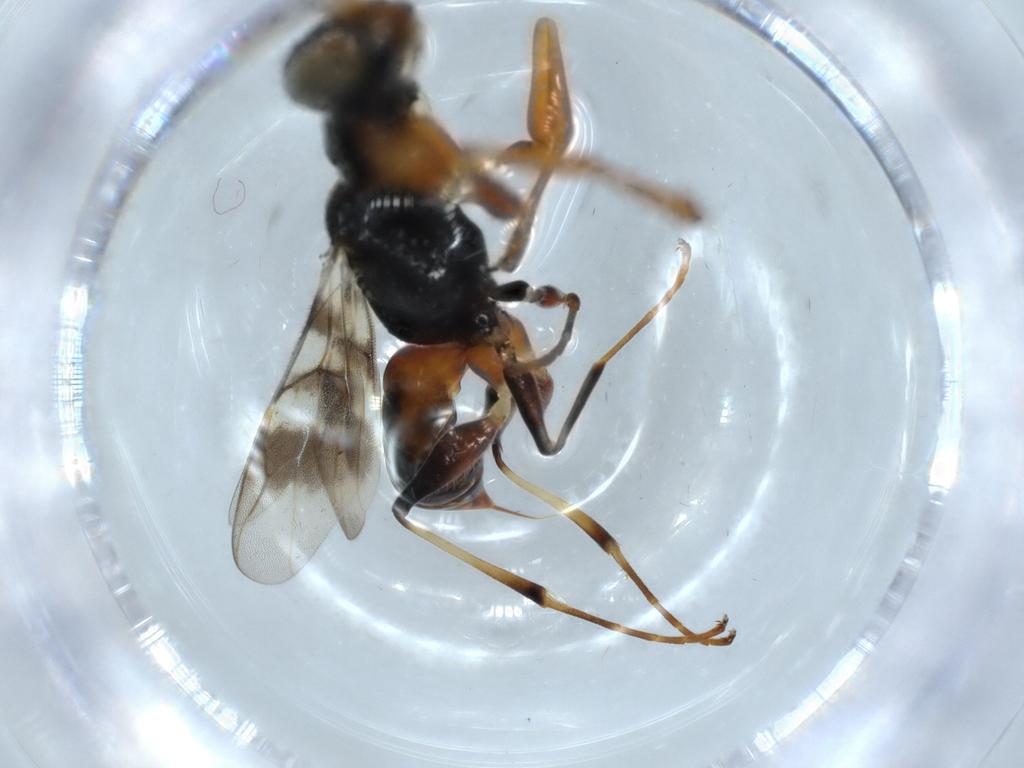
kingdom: Animalia
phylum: Arthropoda
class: Insecta
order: Hymenoptera
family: Dryinidae
